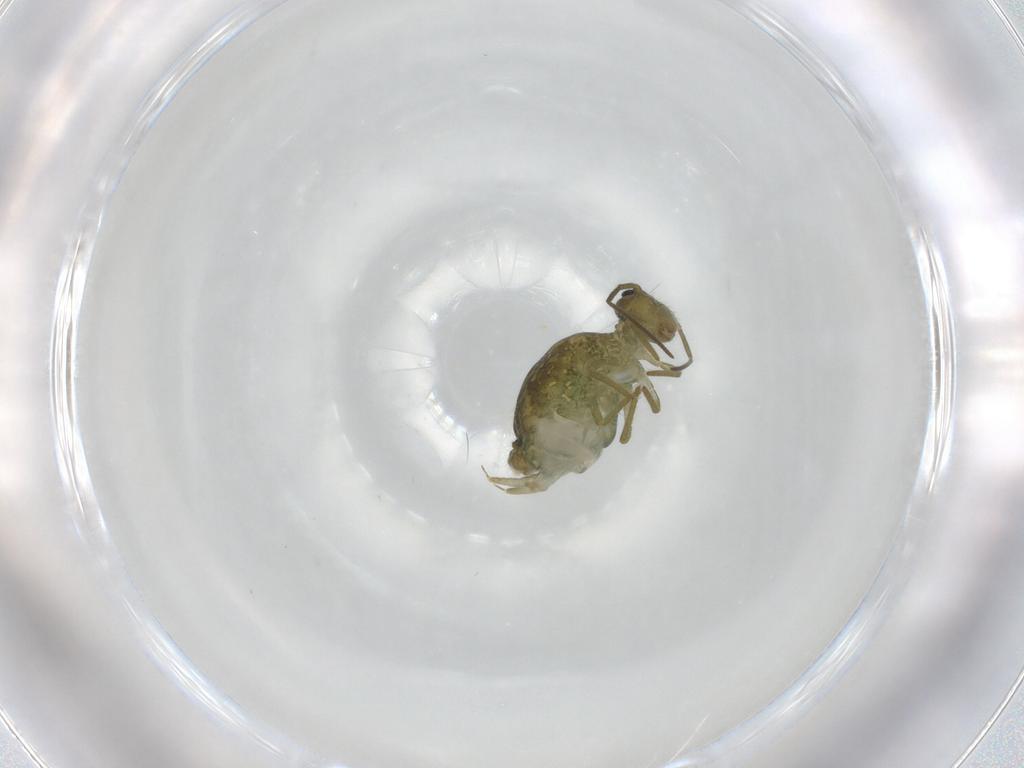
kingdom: Animalia
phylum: Arthropoda
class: Collembola
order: Symphypleona
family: Sminthuridae
